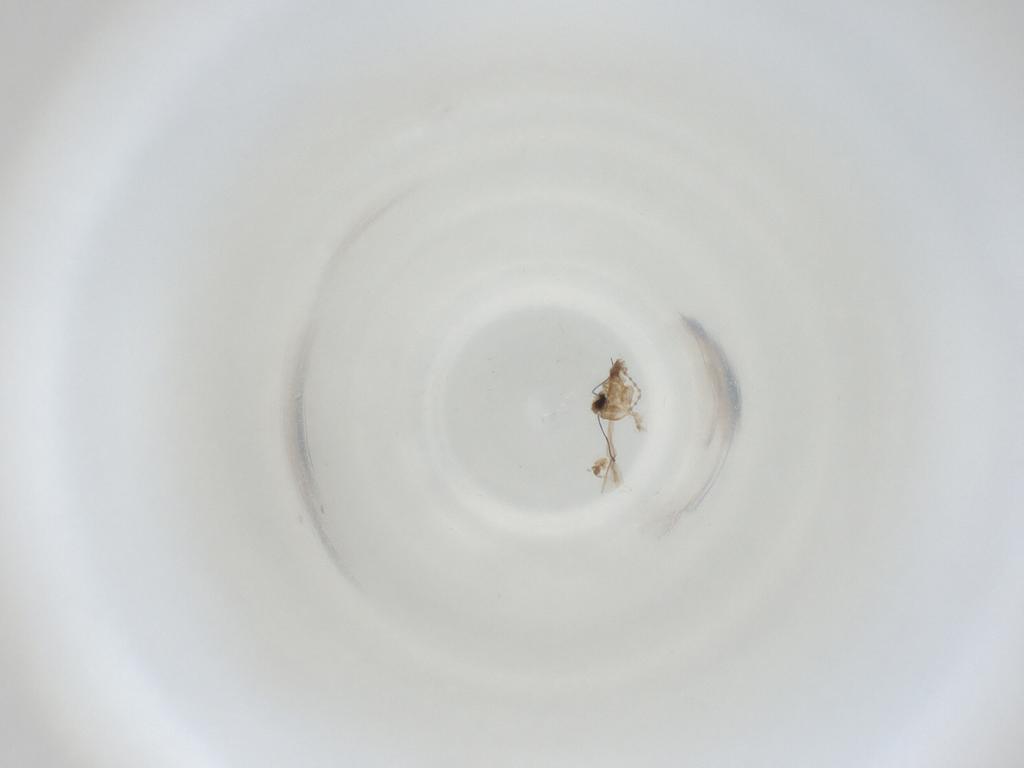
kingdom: Animalia
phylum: Arthropoda
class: Insecta
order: Diptera
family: Cecidomyiidae
